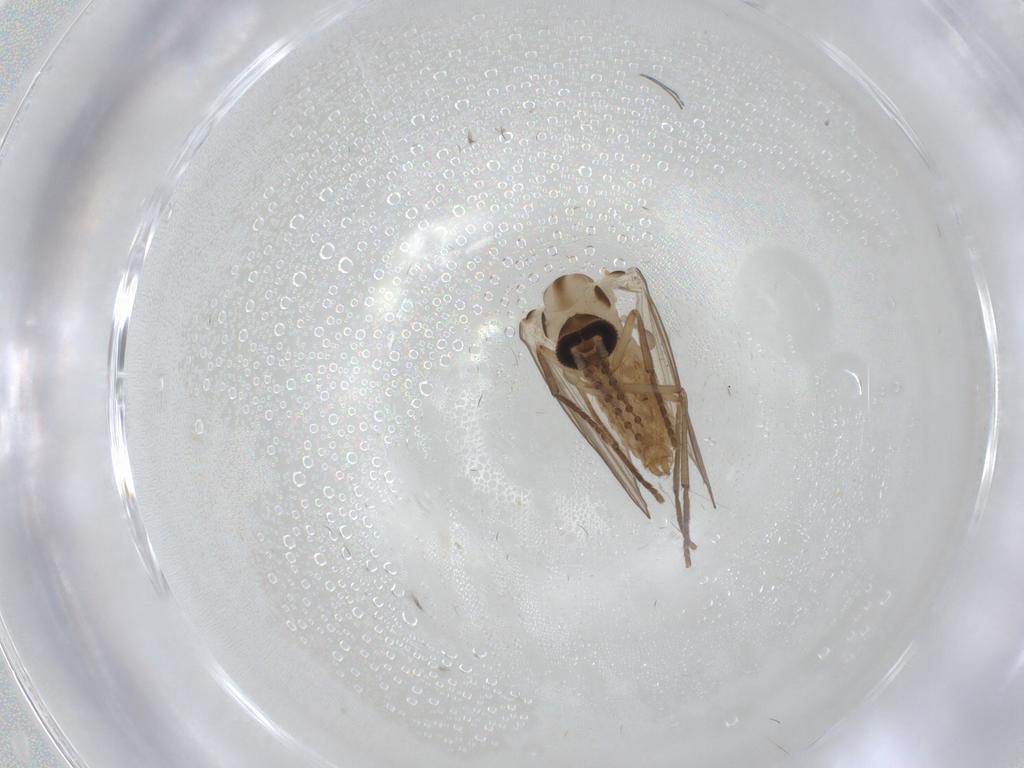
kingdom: Animalia
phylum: Arthropoda
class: Insecta
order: Diptera
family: Psychodidae
